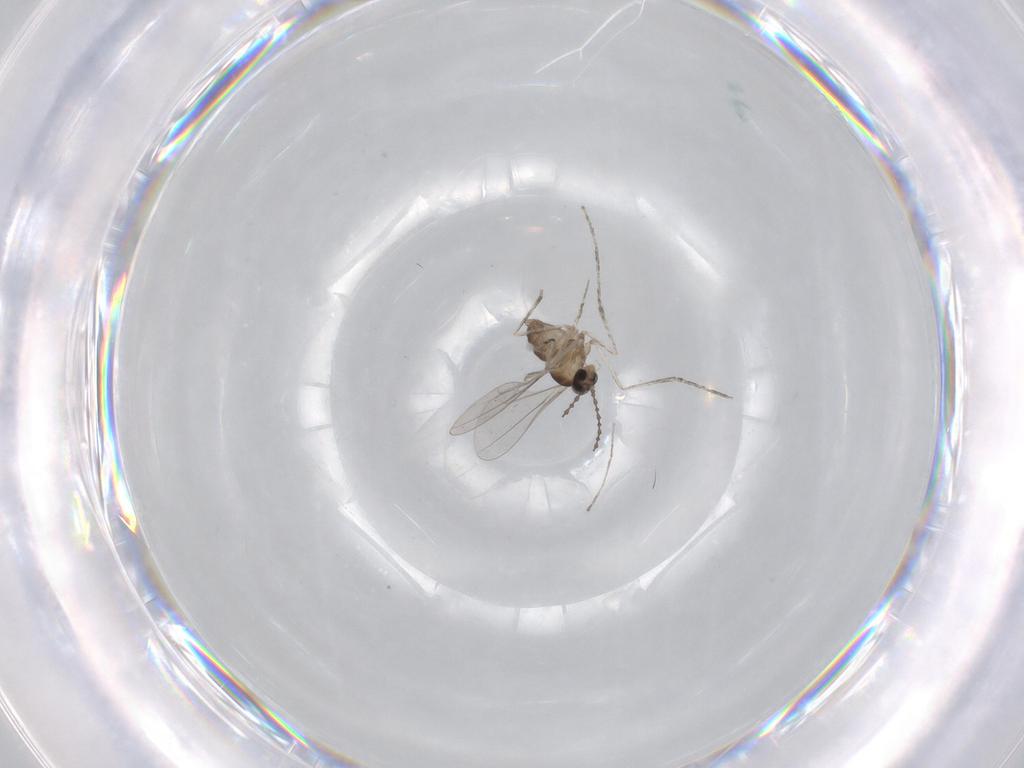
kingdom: Animalia
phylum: Arthropoda
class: Insecta
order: Diptera
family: Cecidomyiidae
